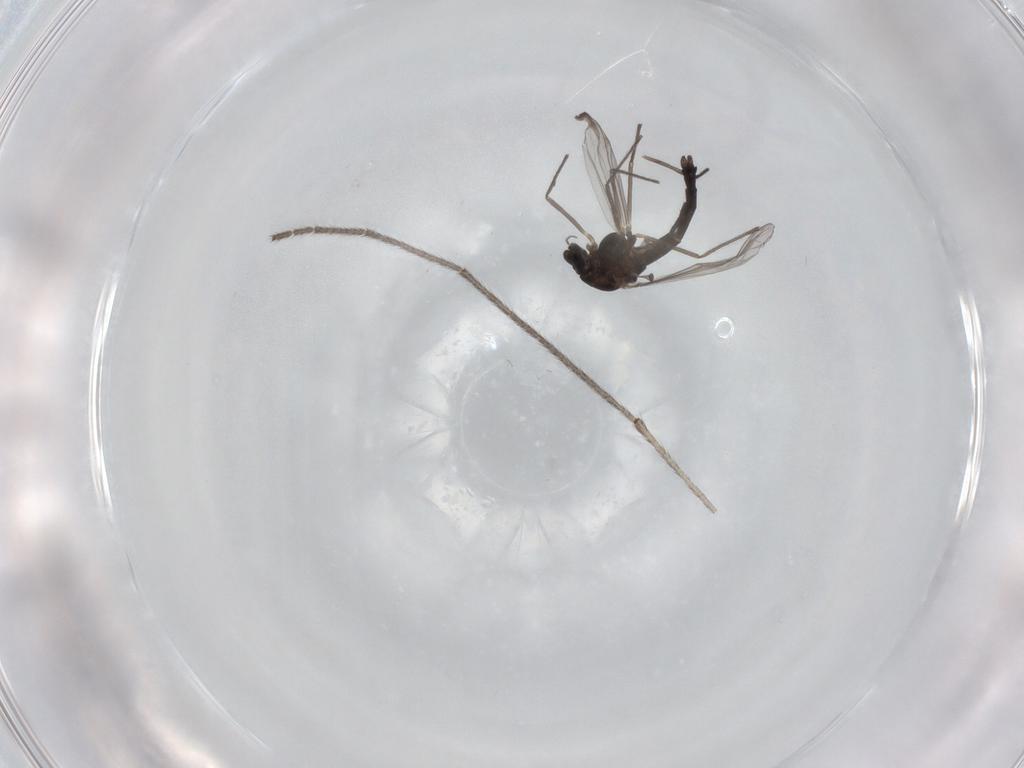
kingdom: Animalia
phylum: Arthropoda
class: Insecta
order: Diptera
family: Chironomidae
